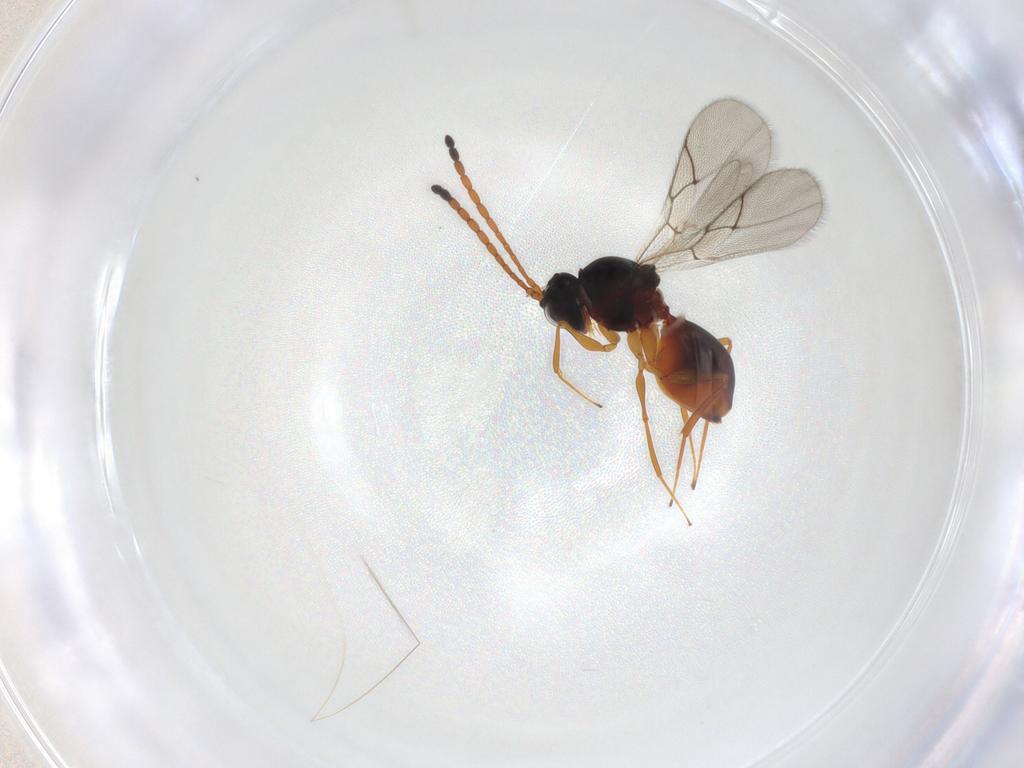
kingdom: Animalia
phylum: Arthropoda
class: Insecta
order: Hymenoptera
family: Figitidae
